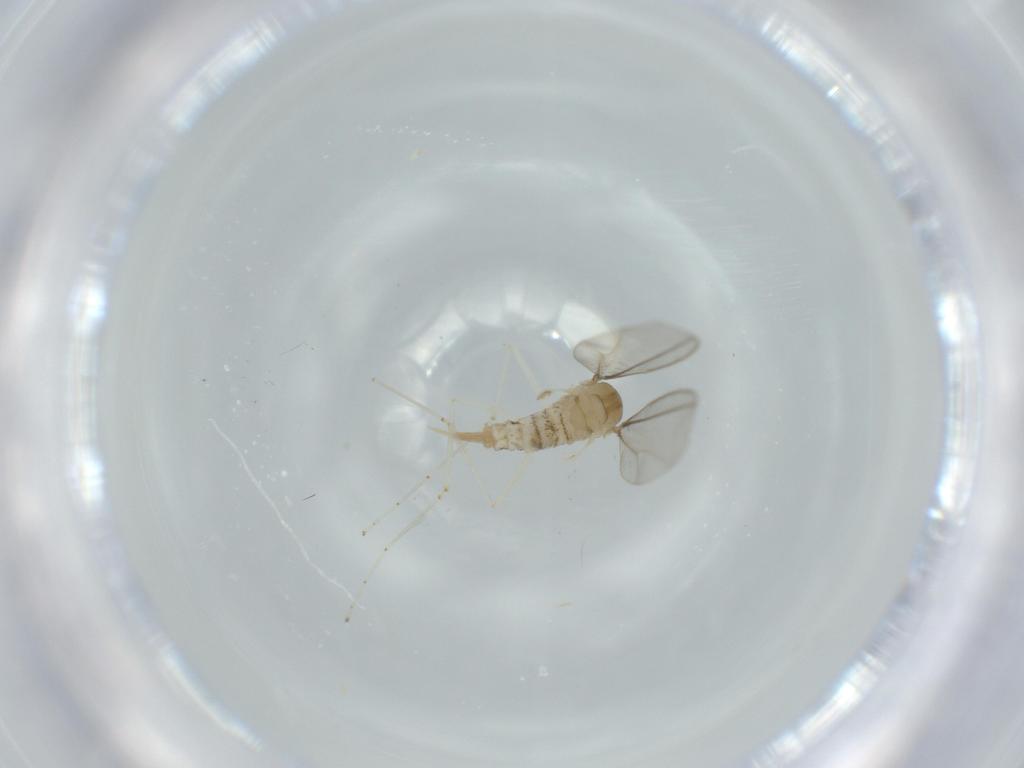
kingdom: Animalia
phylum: Arthropoda
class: Insecta
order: Diptera
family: Cecidomyiidae
